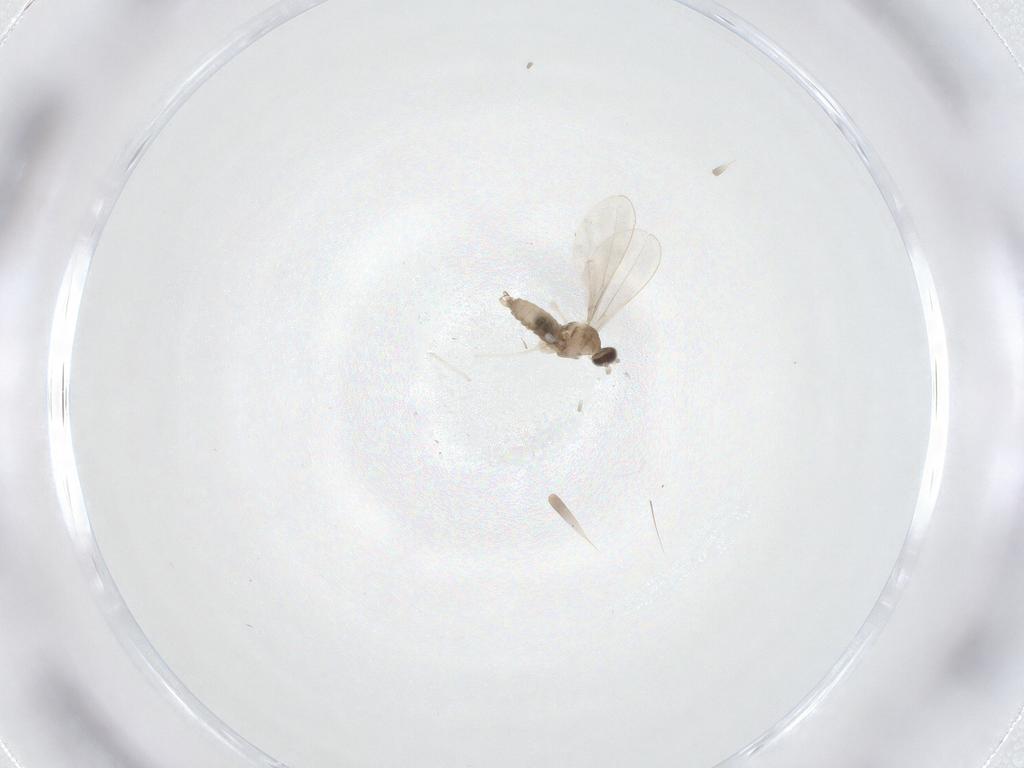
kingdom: Animalia
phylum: Arthropoda
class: Insecta
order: Diptera
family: Cecidomyiidae
